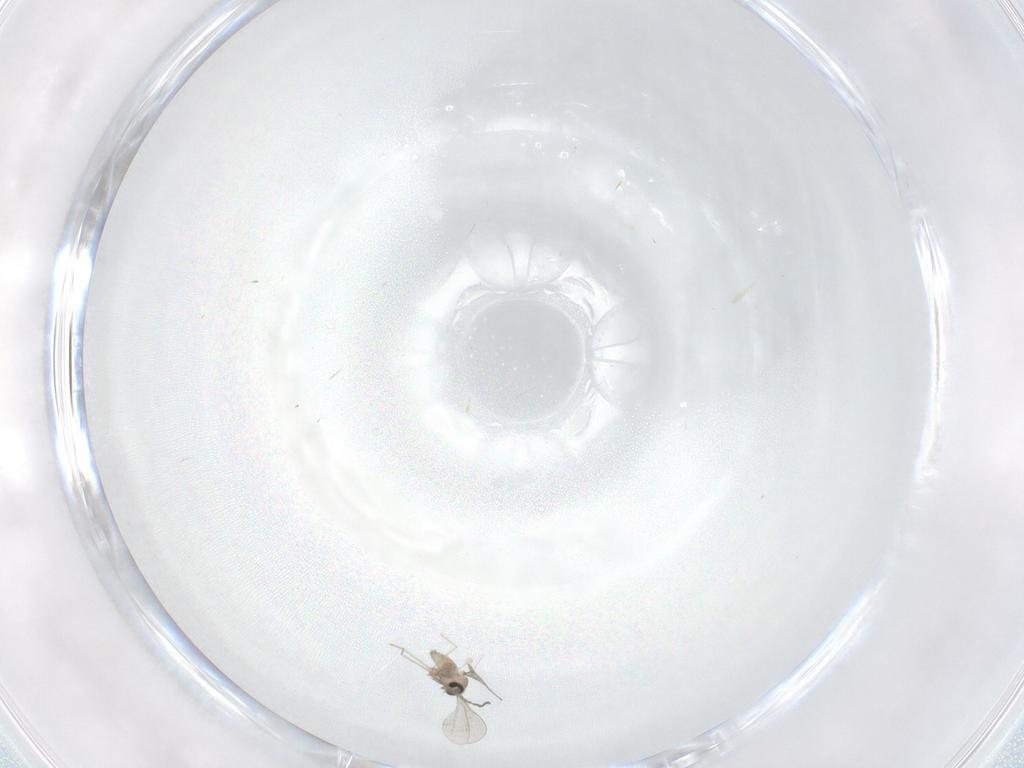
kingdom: Animalia
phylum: Arthropoda
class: Insecta
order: Diptera
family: Cecidomyiidae
